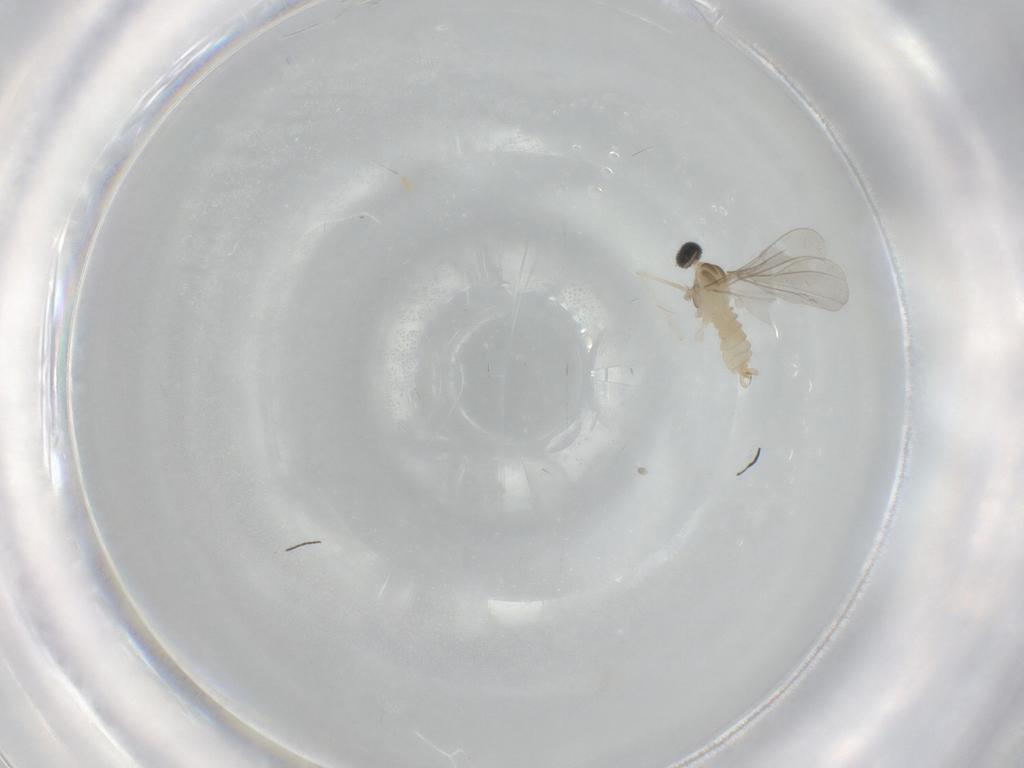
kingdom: Animalia
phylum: Arthropoda
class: Insecta
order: Diptera
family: Cecidomyiidae
